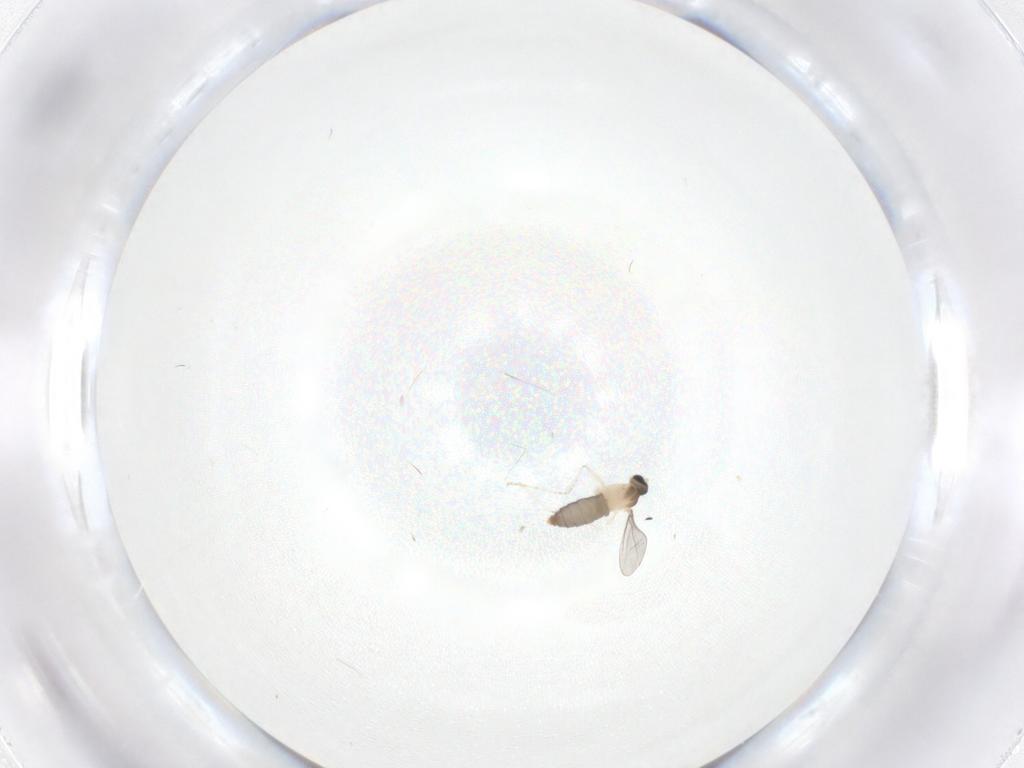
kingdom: Animalia
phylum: Arthropoda
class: Insecta
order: Diptera
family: Cecidomyiidae
